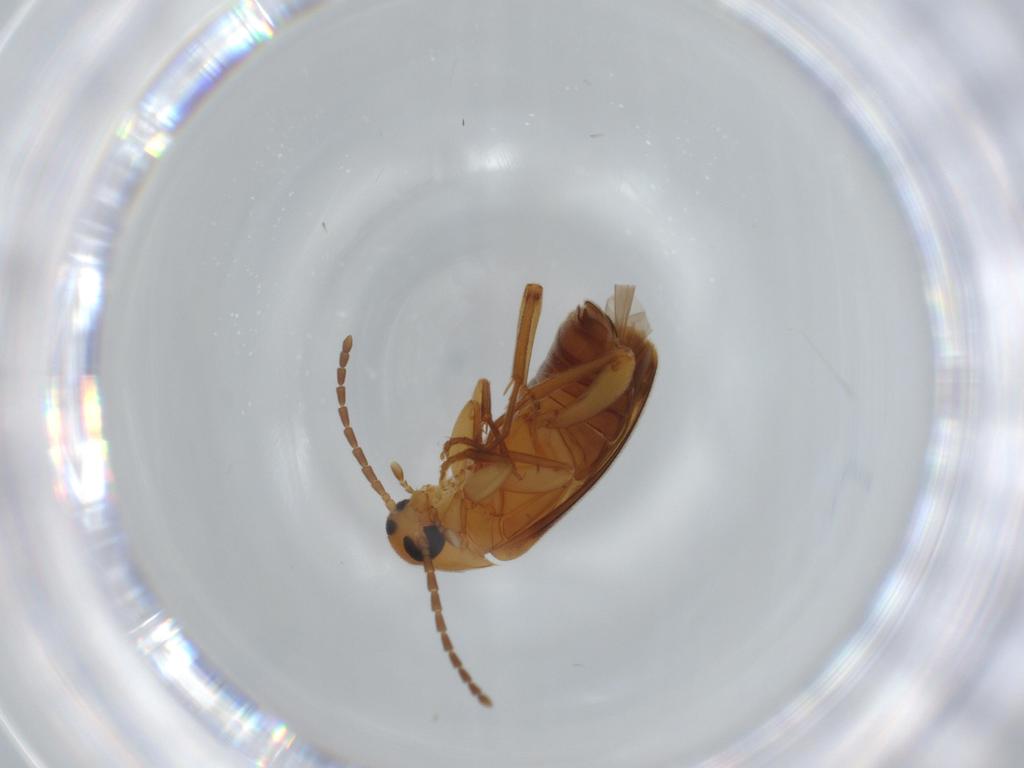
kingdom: Animalia
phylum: Arthropoda
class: Insecta
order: Coleoptera
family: Scraptiidae
